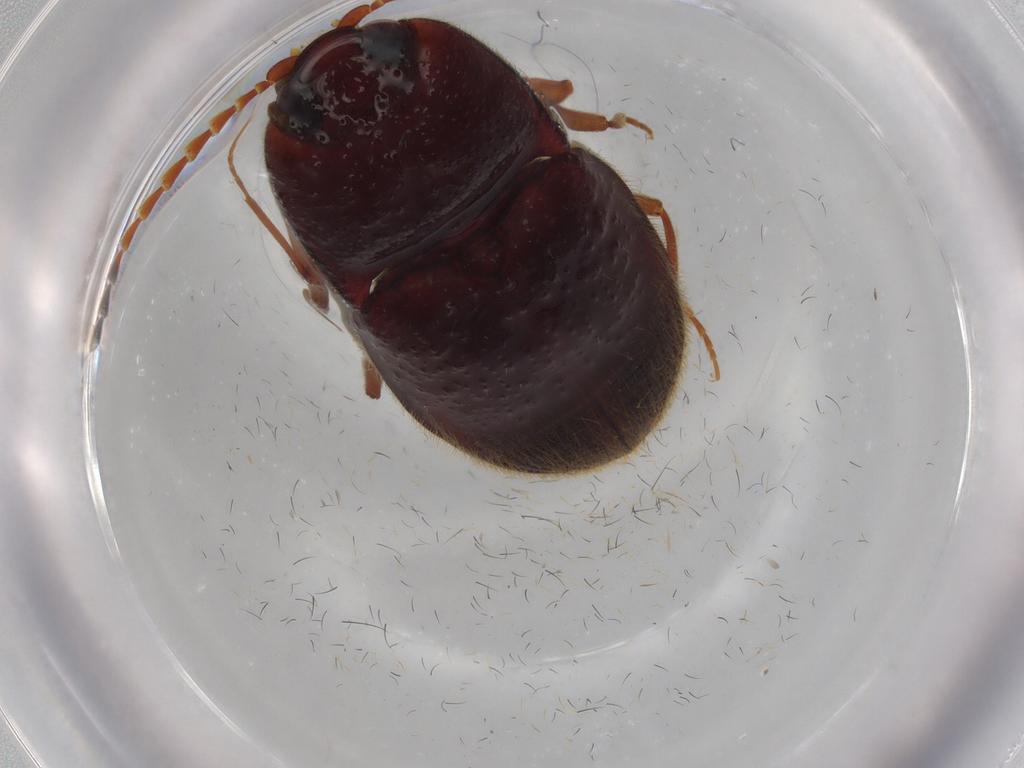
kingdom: Animalia
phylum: Arthropoda
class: Insecta
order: Coleoptera
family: Elateridae
